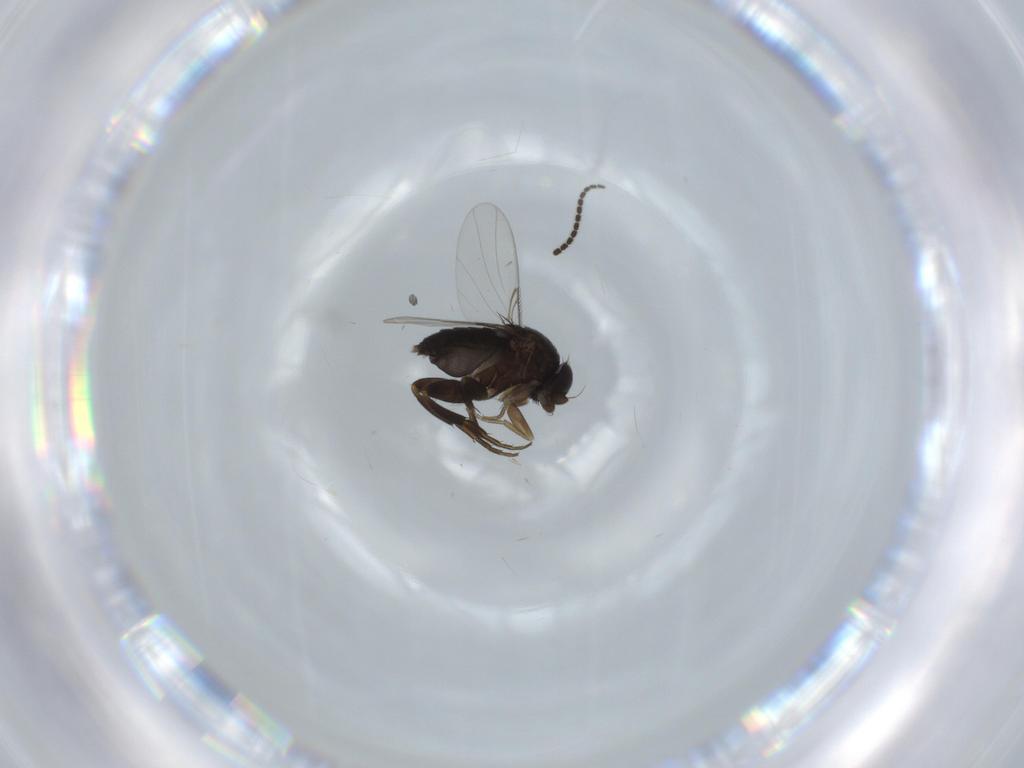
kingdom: Animalia
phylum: Arthropoda
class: Insecta
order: Diptera
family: Phoridae
